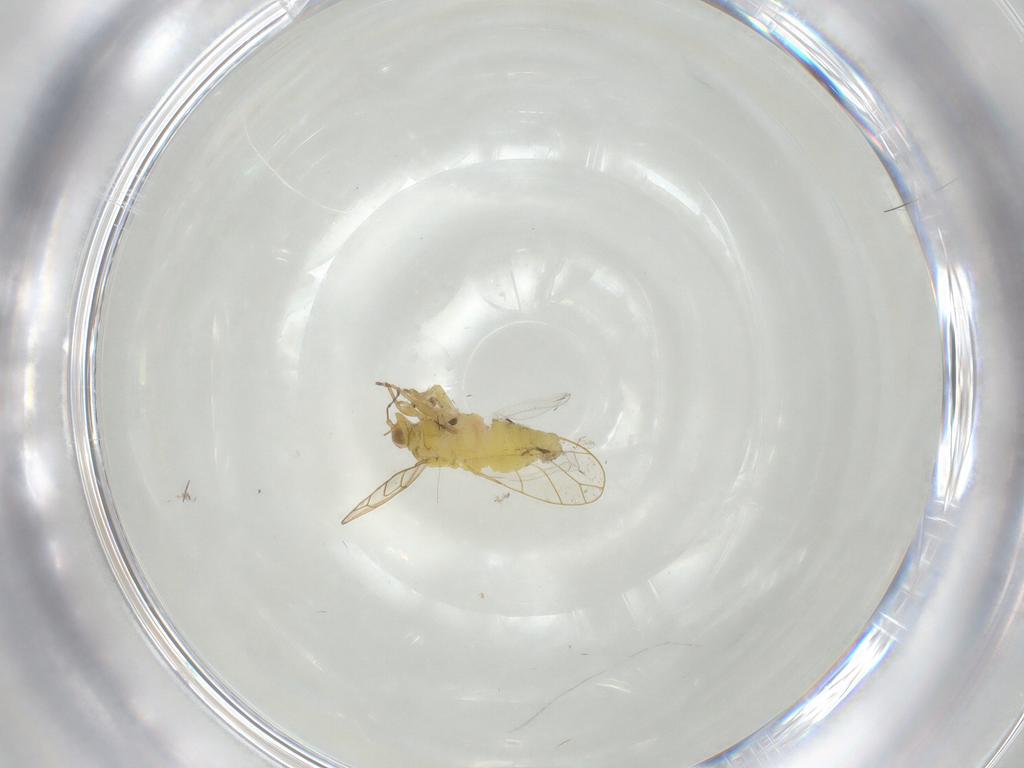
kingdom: Animalia
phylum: Arthropoda
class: Insecta
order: Hemiptera
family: Psylloidea_incertae_sedis
